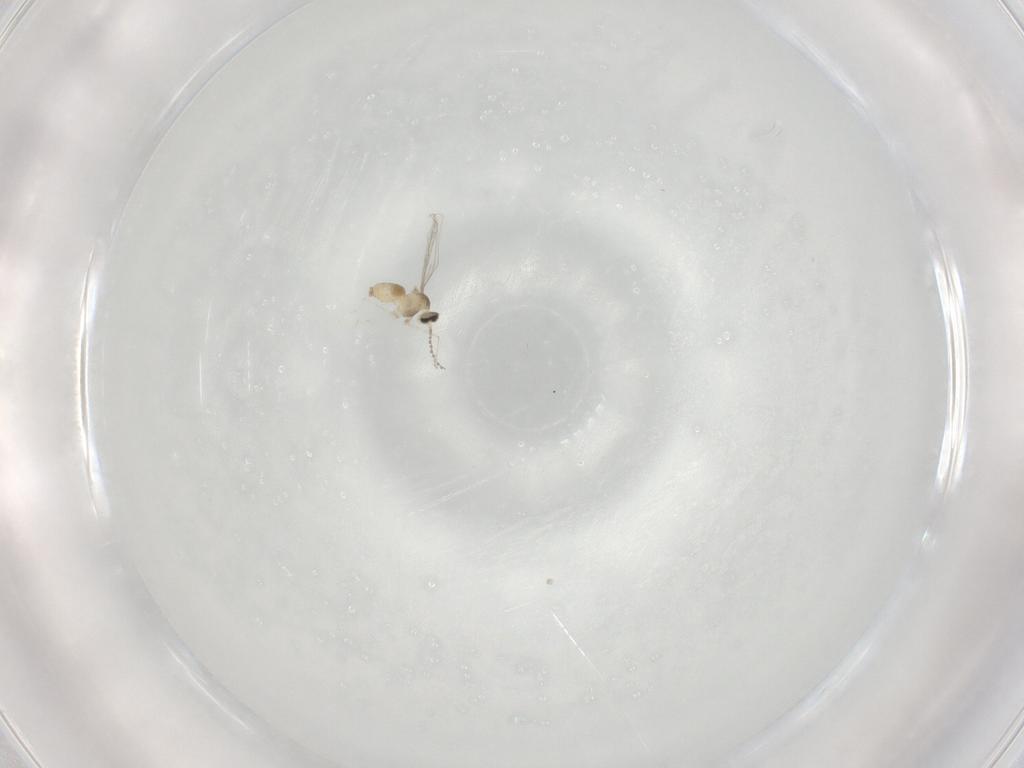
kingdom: Animalia
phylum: Arthropoda
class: Insecta
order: Diptera
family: Cecidomyiidae
